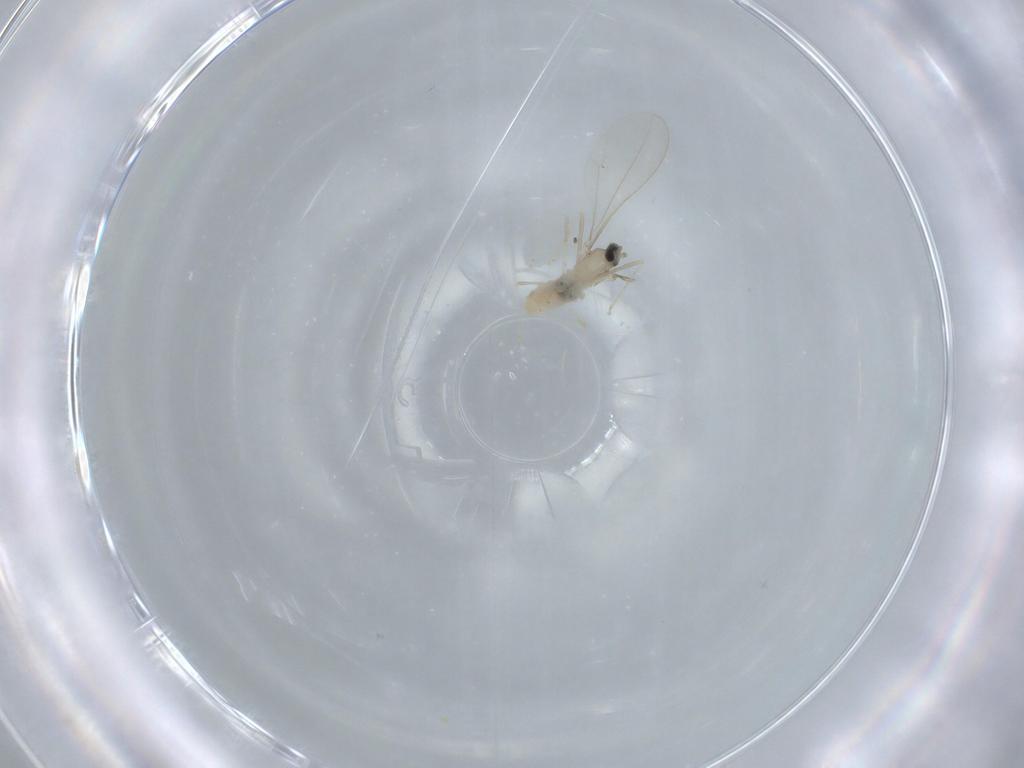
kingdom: Animalia
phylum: Arthropoda
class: Insecta
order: Diptera
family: Cecidomyiidae
